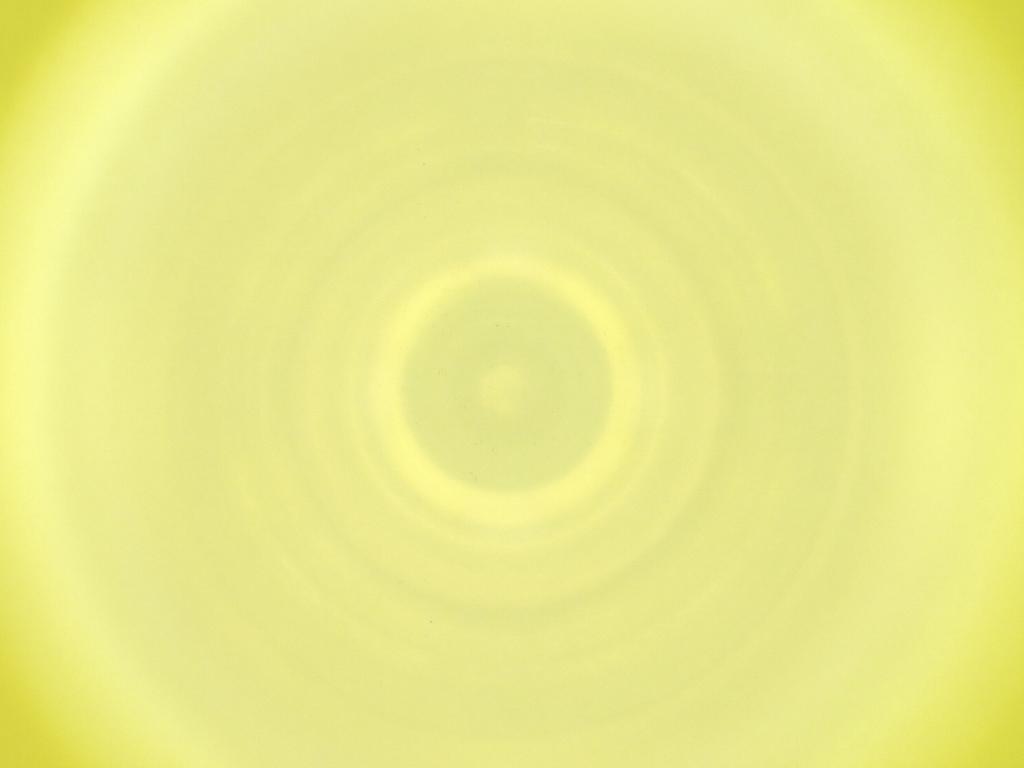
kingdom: Animalia
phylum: Arthropoda
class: Insecta
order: Diptera
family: Cecidomyiidae
